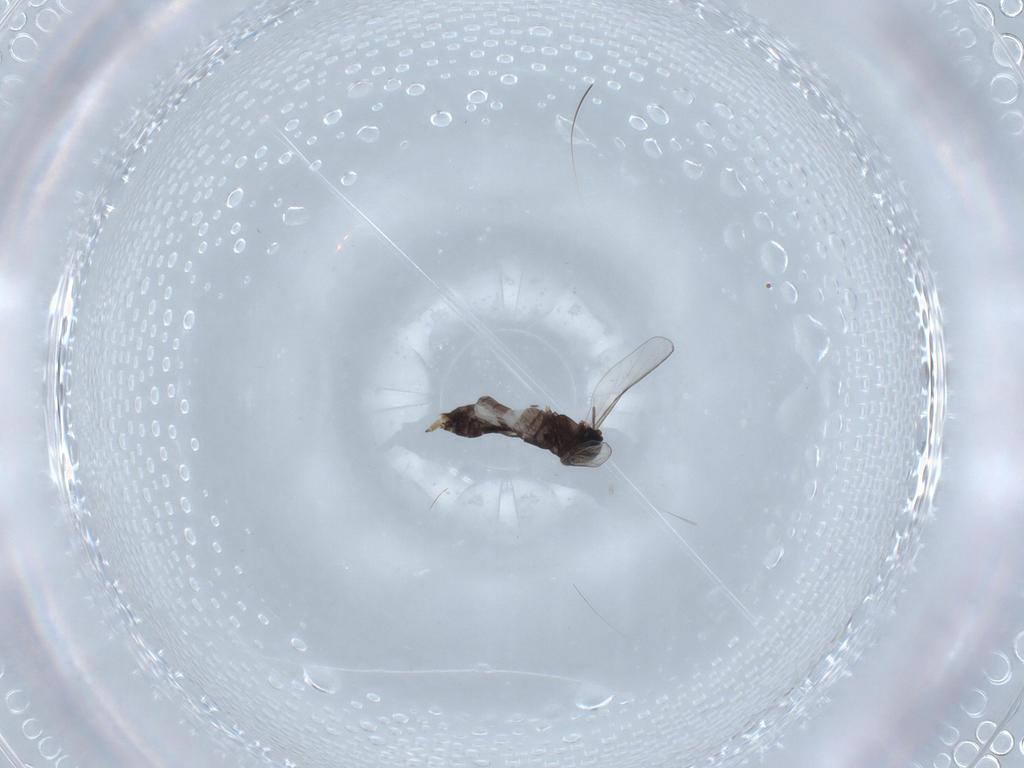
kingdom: Animalia
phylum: Arthropoda
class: Insecta
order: Diptera
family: Chironomidae
